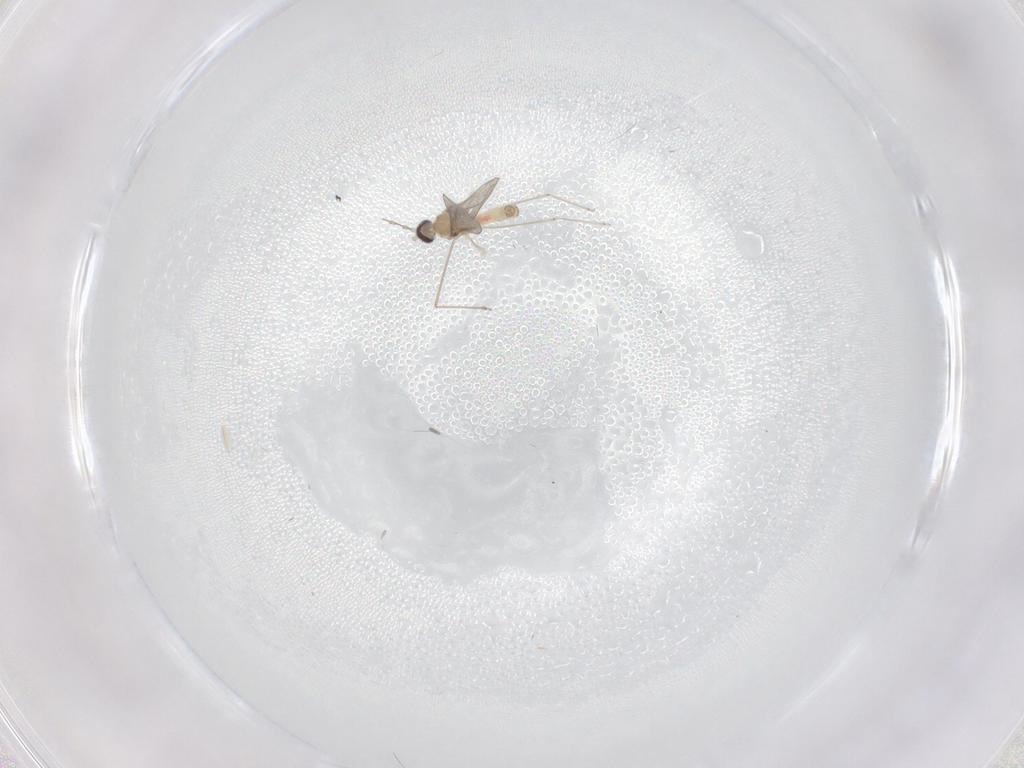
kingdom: Animalia
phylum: Arthropoda
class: Insecta
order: Diptera
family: Cecidomyiidae
